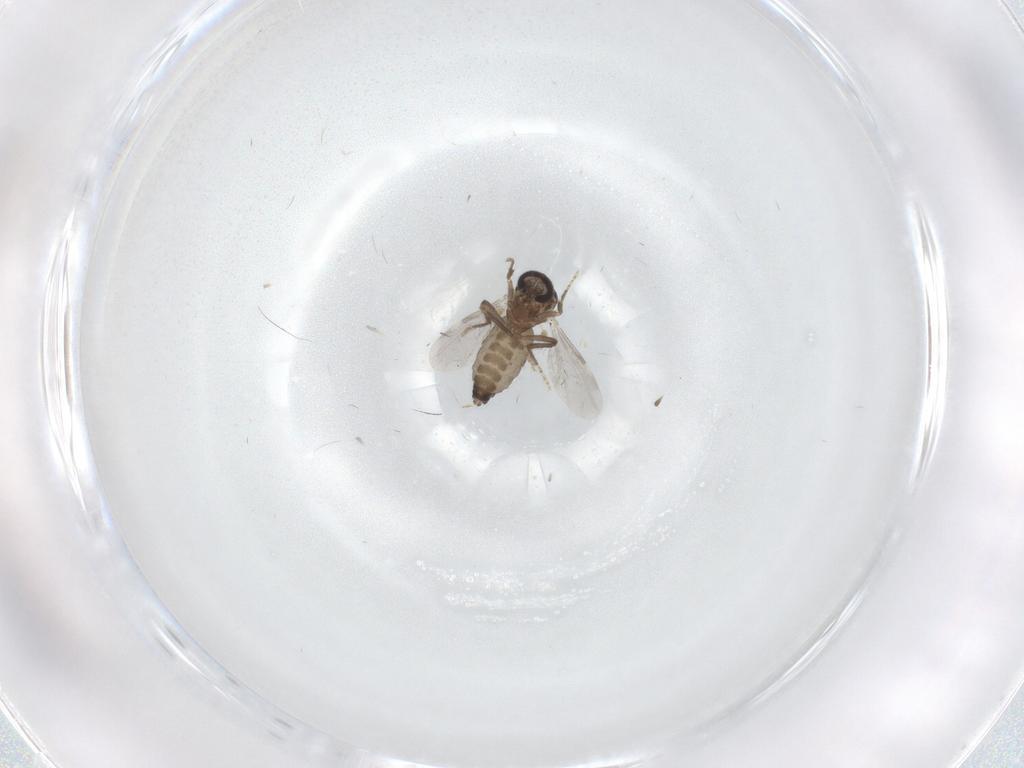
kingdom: Animalia
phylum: Arthropoda
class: Insecta
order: Diptera
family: Ceratopogonidae
